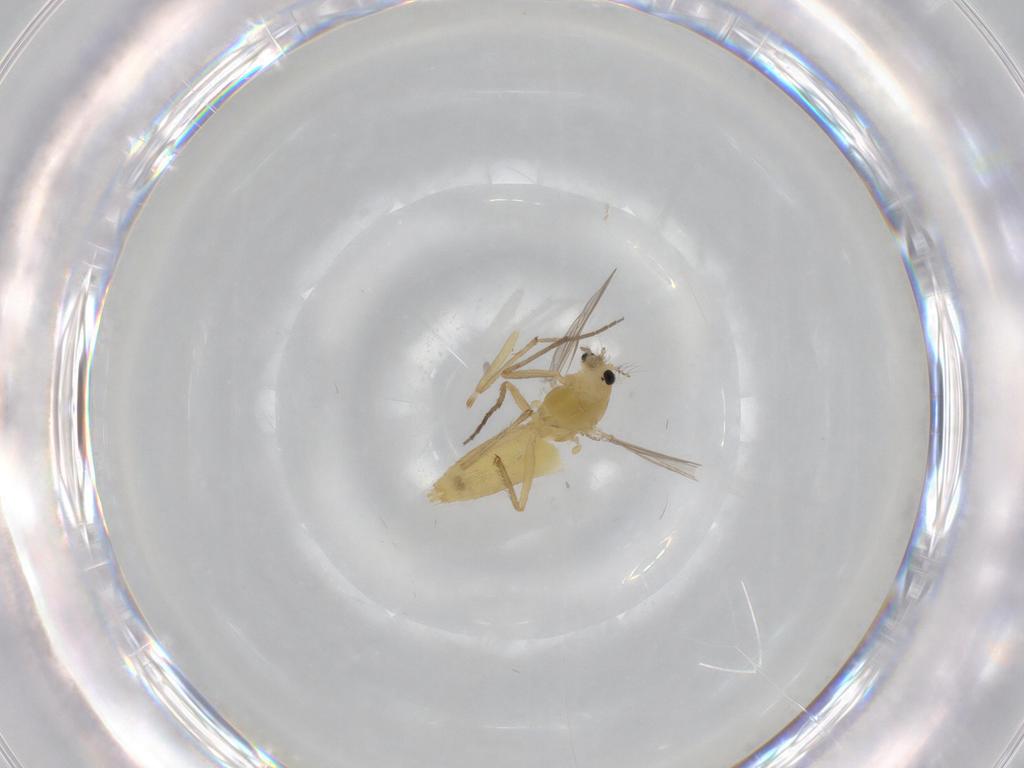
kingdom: Animalia
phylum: Arthropoda
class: Insecta
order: Diptera
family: Chironomidae
